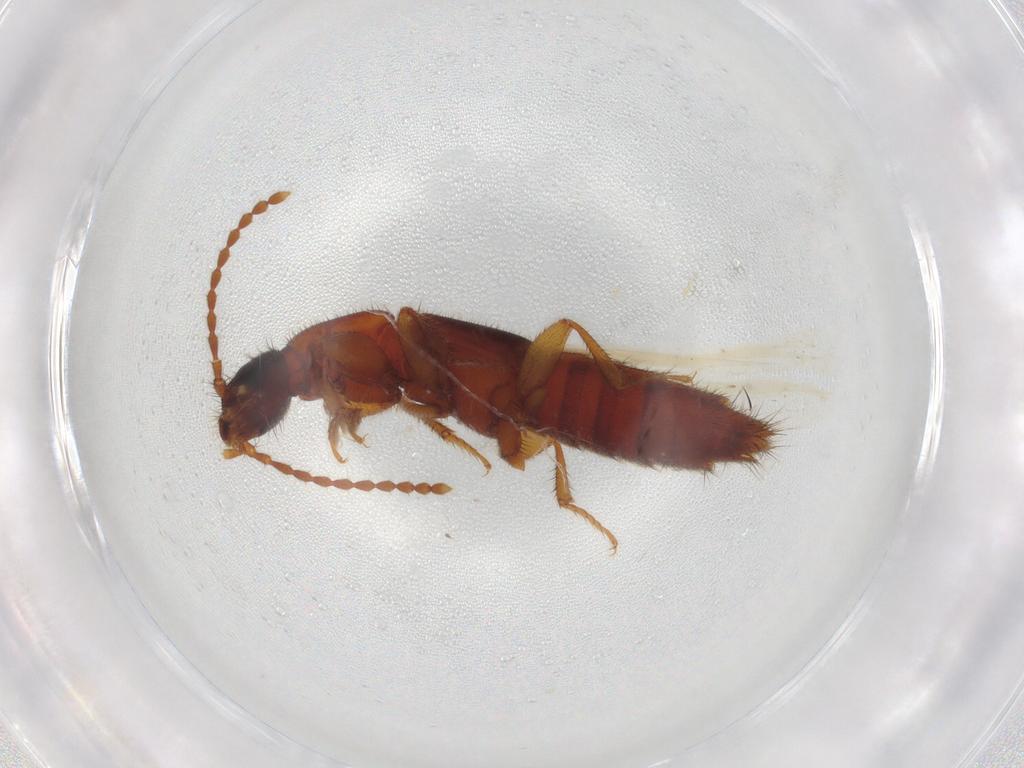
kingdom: Animalia
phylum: Arthropoda
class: Insecta
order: Coleoptera
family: Staphylinidae
